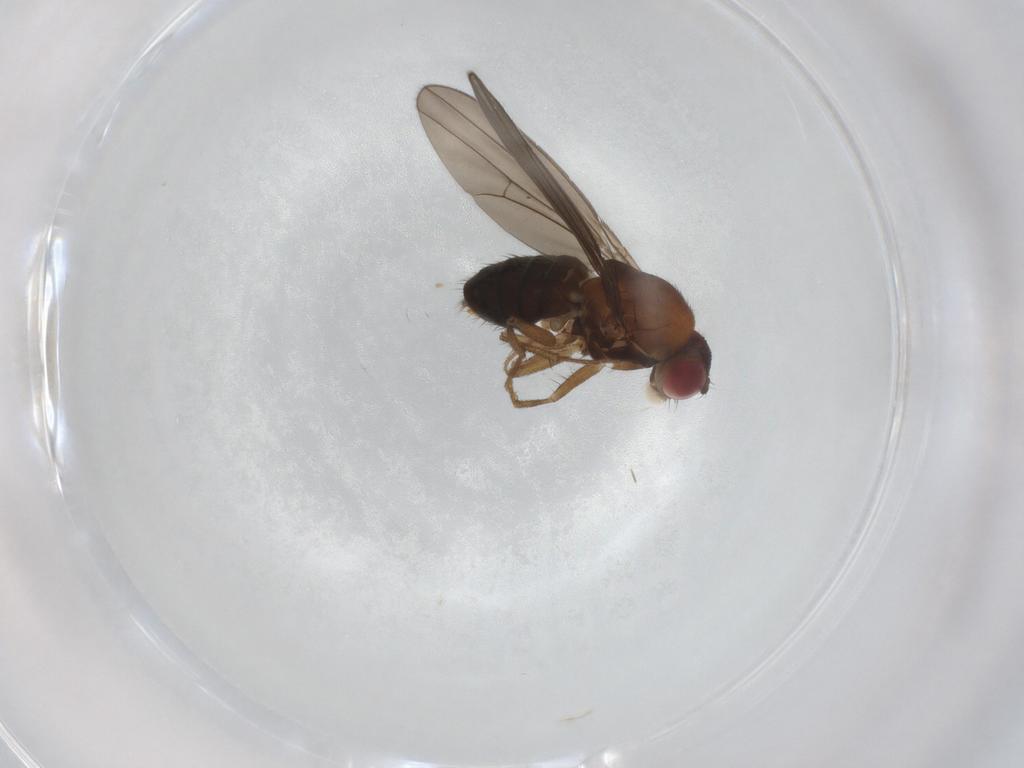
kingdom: Animalia
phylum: Arthropoda
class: Insecta
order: Diptera
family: Drosophilidae
